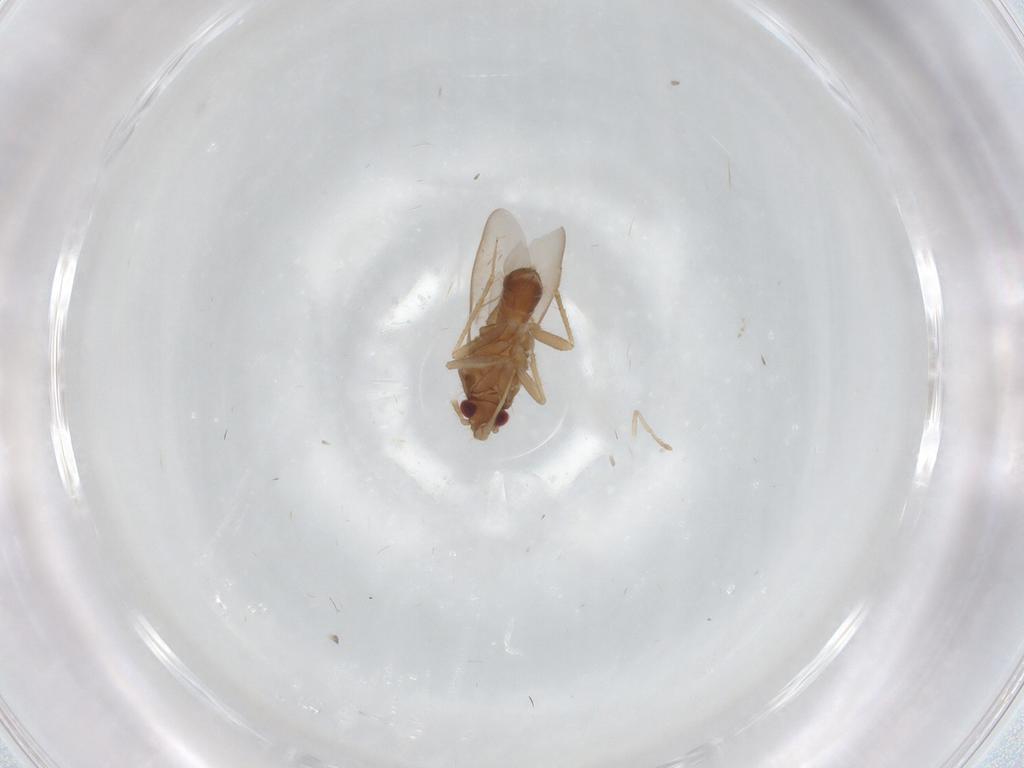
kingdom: Animalia
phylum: Arthropoda
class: Insecta
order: Hemiptera
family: Ceratocombidae
